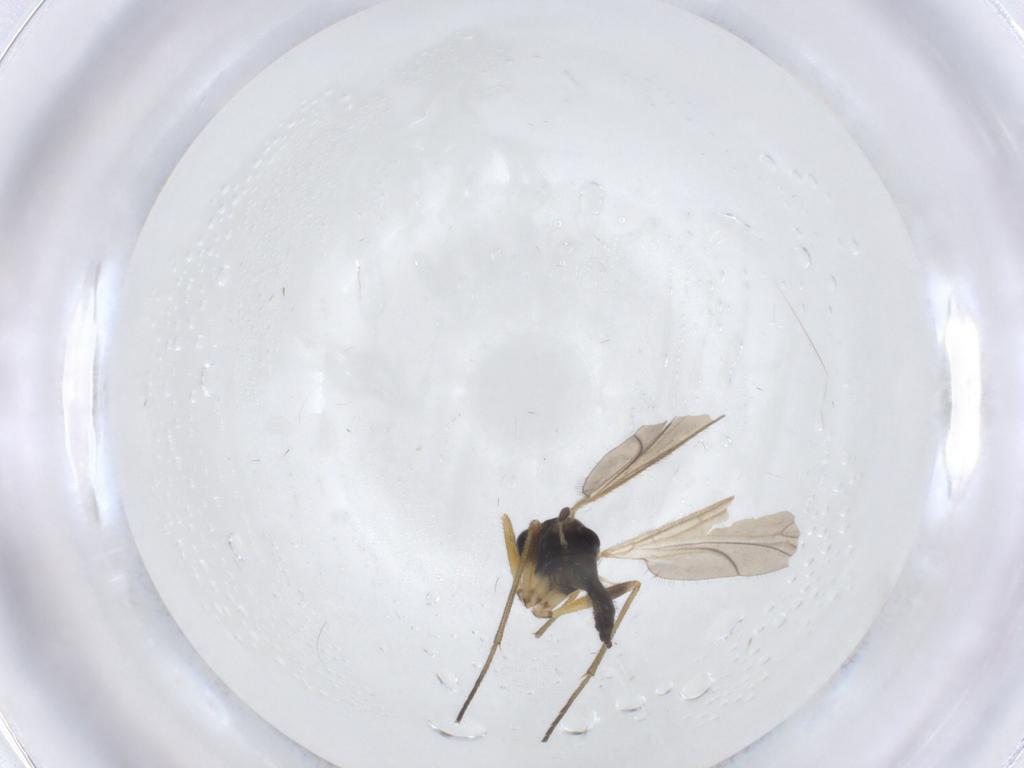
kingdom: Animalia
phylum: Arthropoda
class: Insecta
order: Diptera
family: Sciaridae
